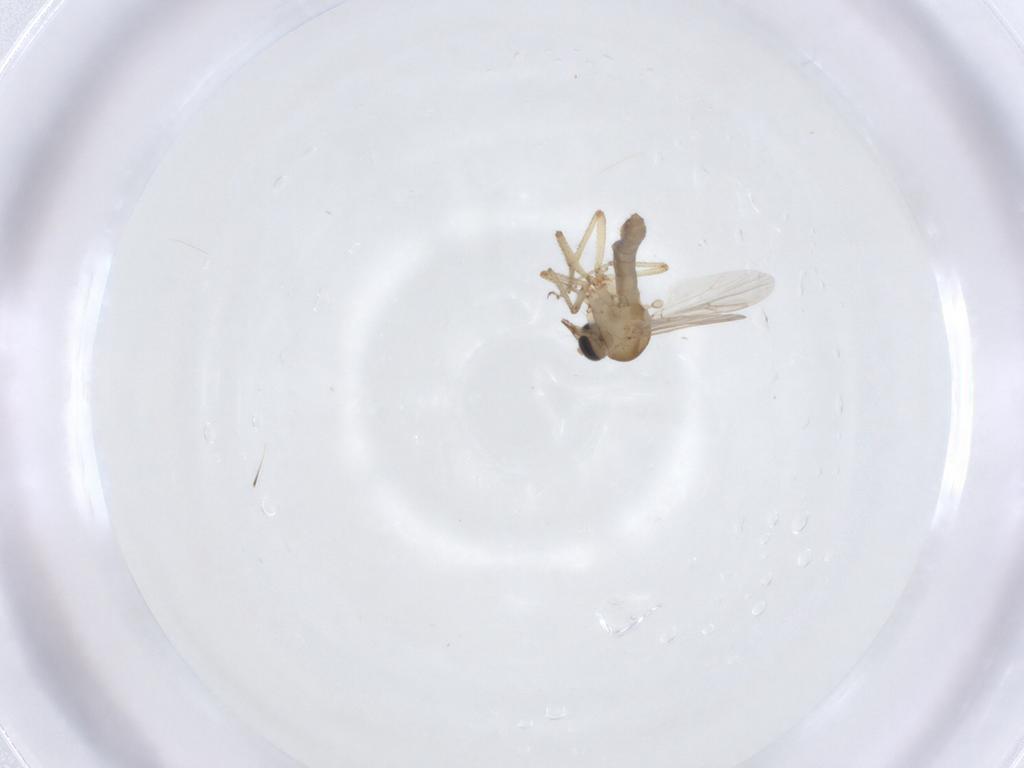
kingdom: Animalia
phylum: Arthropoda
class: Insecta
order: Diptera
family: Ceratopogonidae
